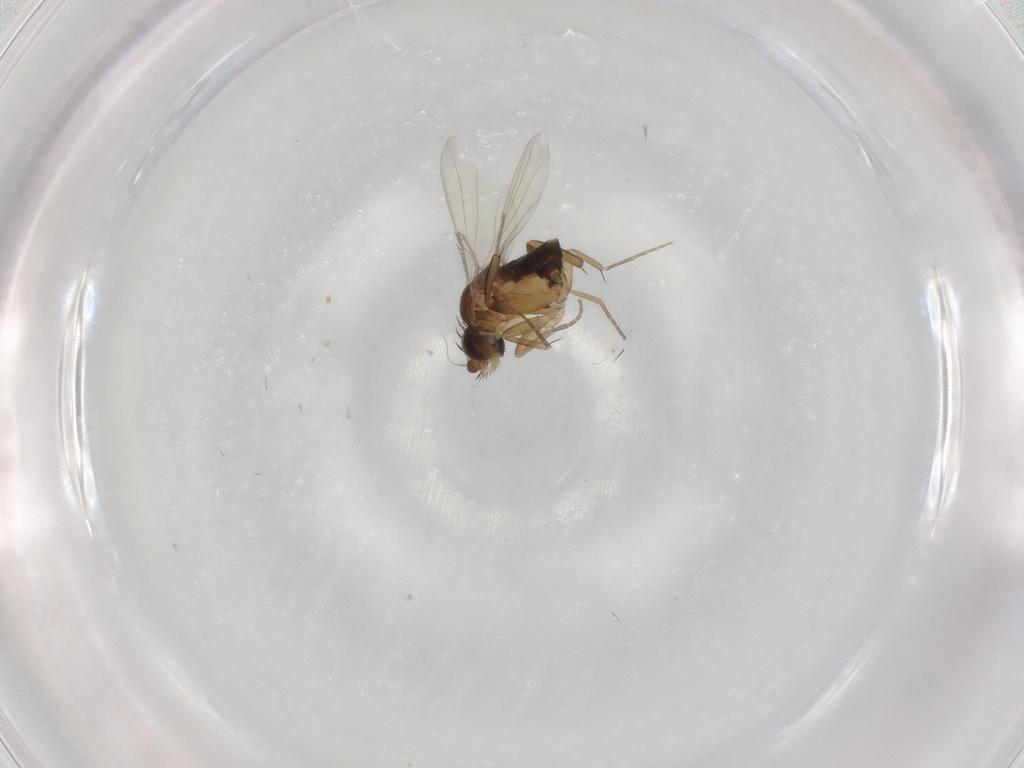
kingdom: Animalia
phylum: Arthropoda
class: Insecta
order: Diptera
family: Phoridae
